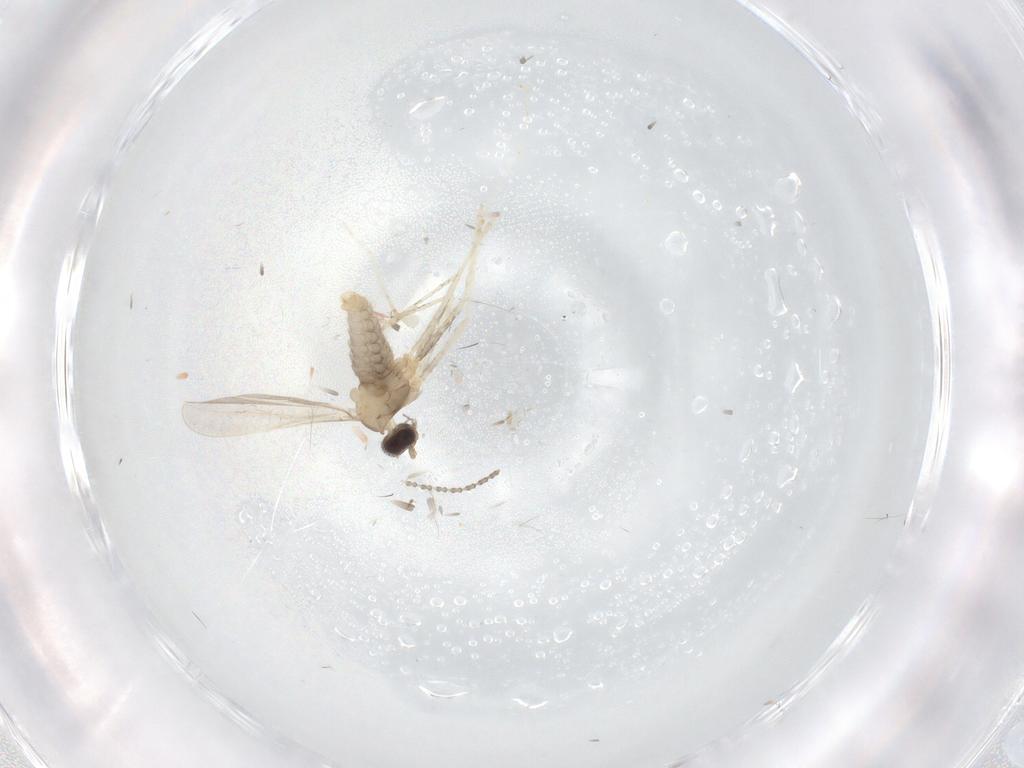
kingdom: Animalia
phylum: Arthropoda
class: Insecta
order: Diptera
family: Cecidomyiidae
